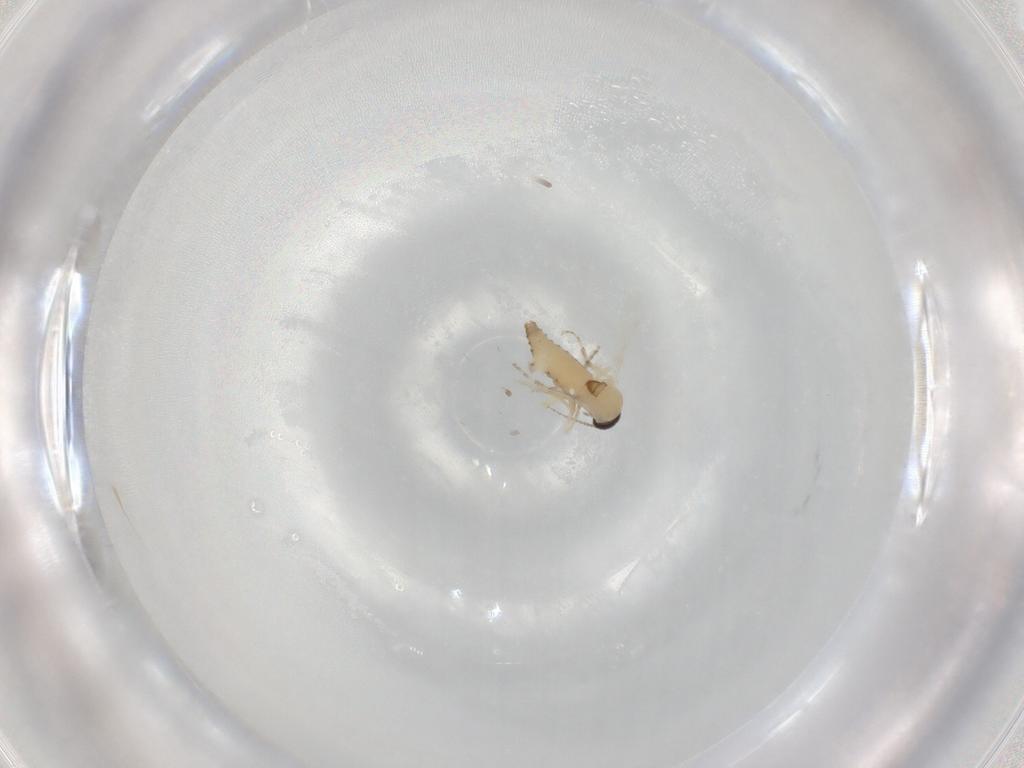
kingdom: Animalia
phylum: Arthropoda
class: Insecta
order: Diptera
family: Ceratopogonidae
